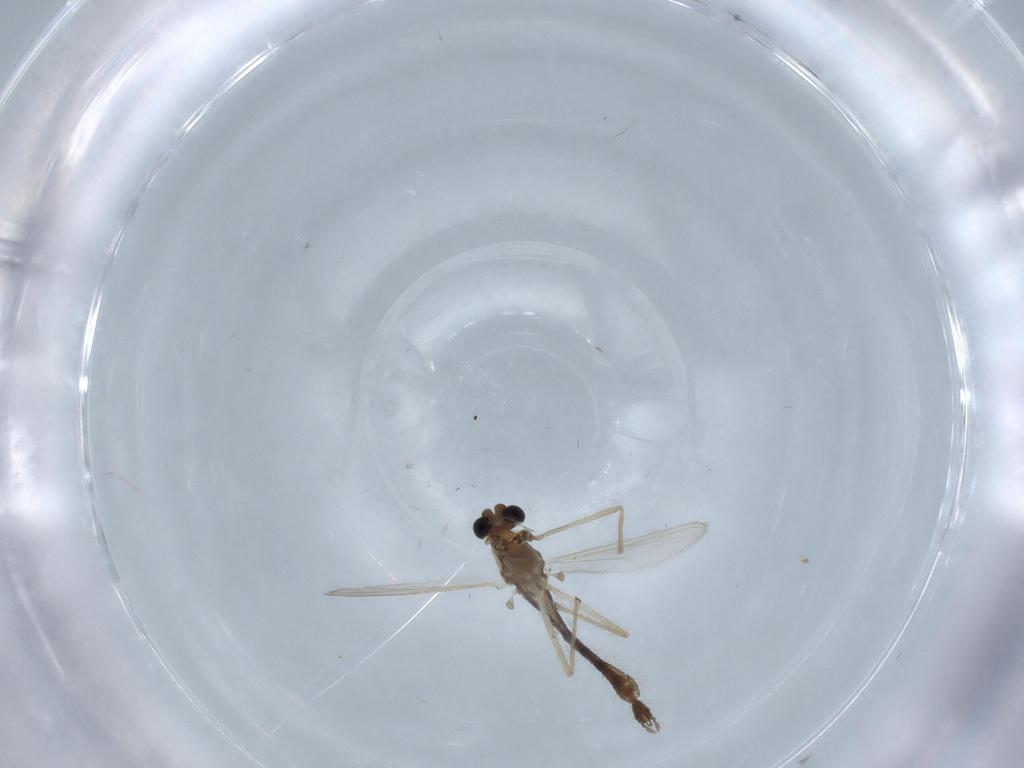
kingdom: Animalia
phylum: Arthropoda
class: Insecta
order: Diptera
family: Chironomidae
